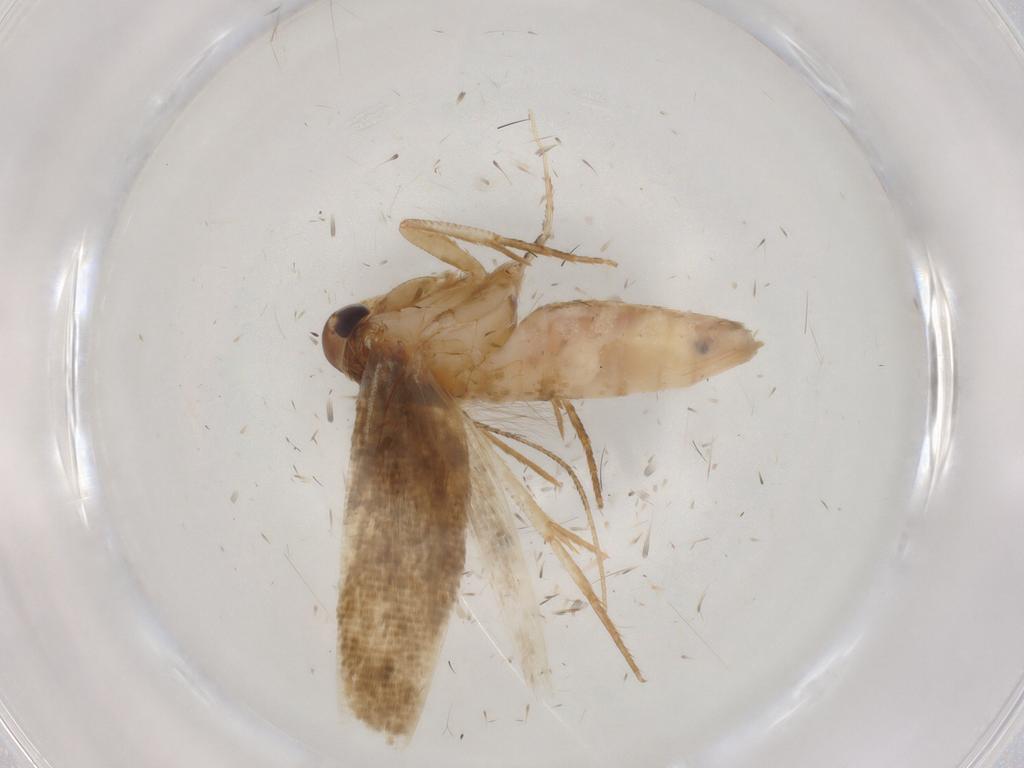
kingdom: Animalia
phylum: Arthropoda
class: Insecta
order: Lepidoptera
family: Cosmopterigidae
